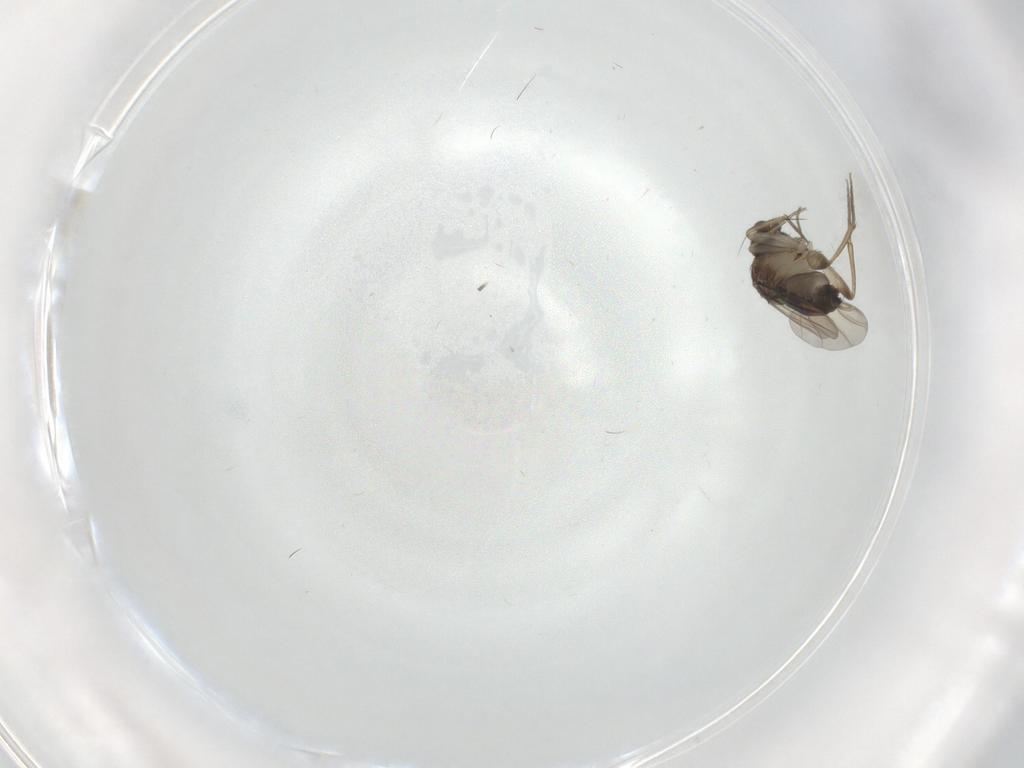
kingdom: Animalia
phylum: Arthropoda
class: Insecta
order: Diptera
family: Phoridae
